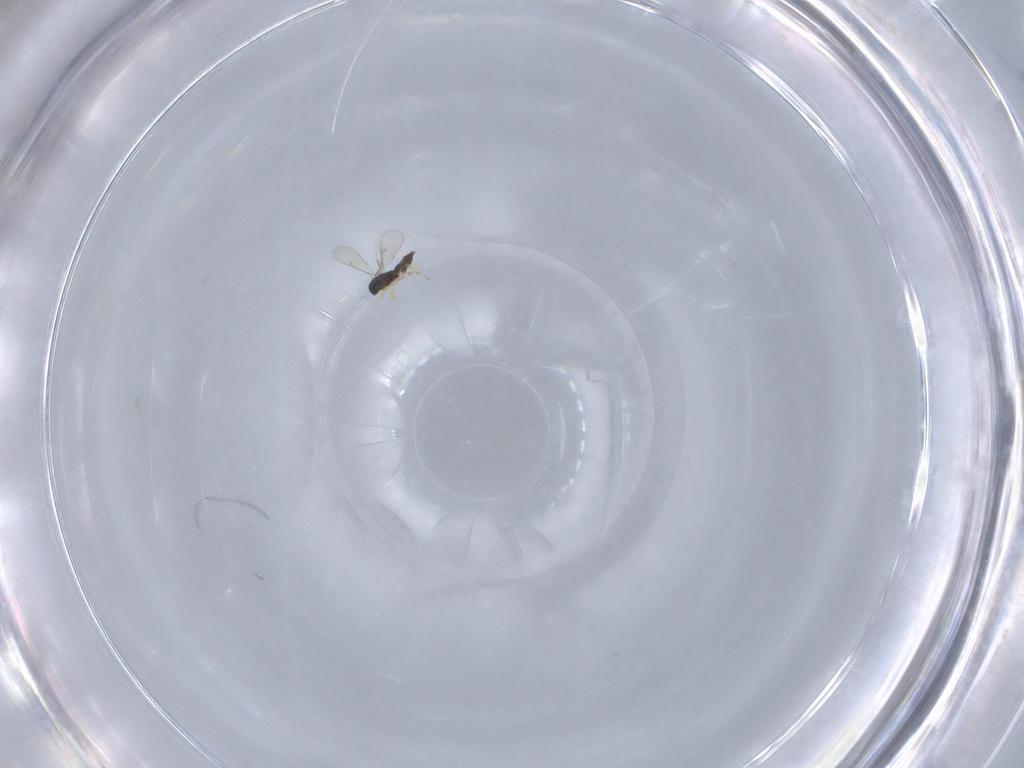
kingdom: Animalia
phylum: Arthropoda
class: Insecta
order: Hymenoptera
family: Eulophidae
